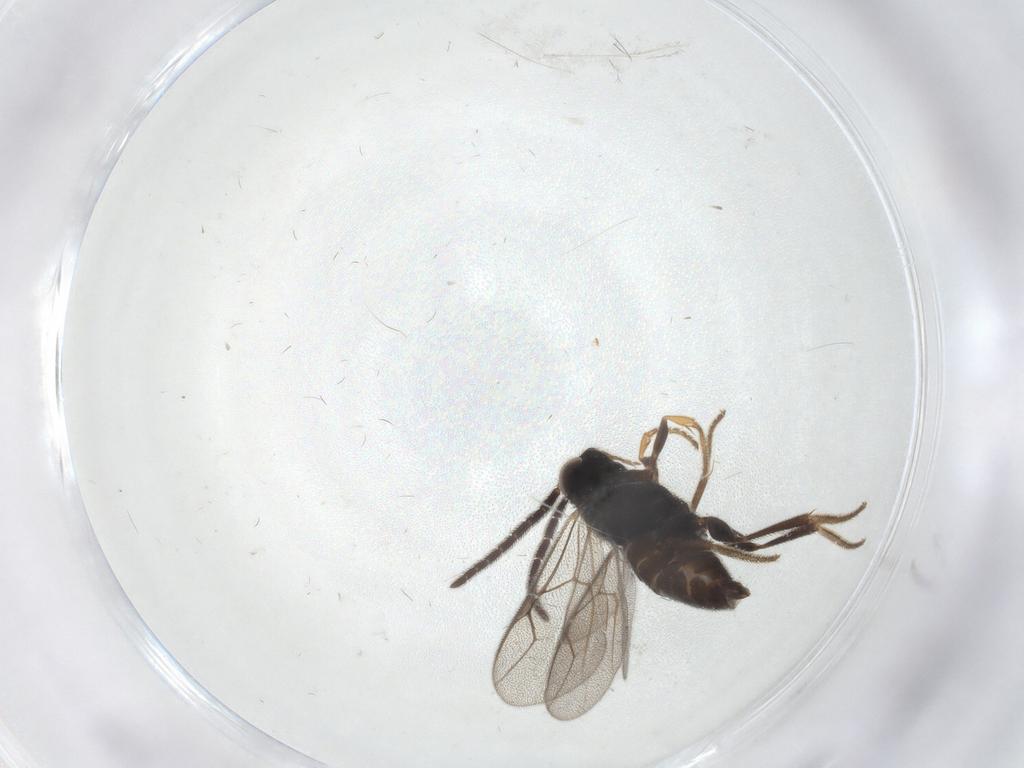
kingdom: Animalia
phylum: Arthropoda
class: Insecta
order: Hymenoptera
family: Dryinidae
